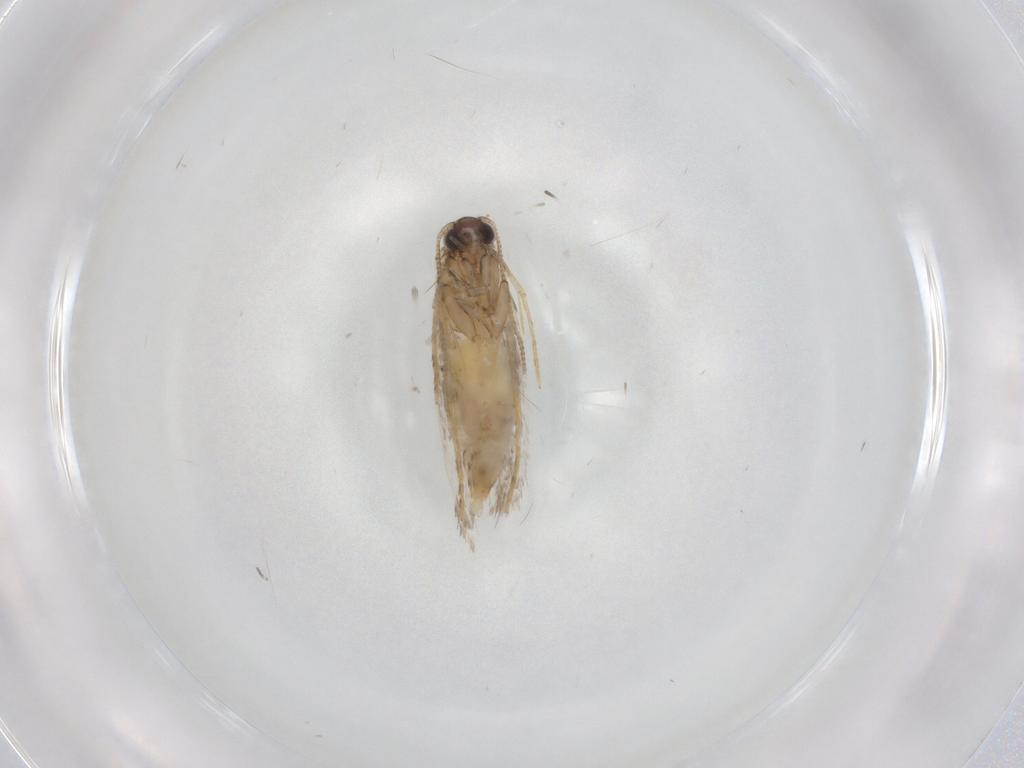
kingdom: Animalia
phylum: Arthropoda
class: Insecta
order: Lepidoptera
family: Tineidae
